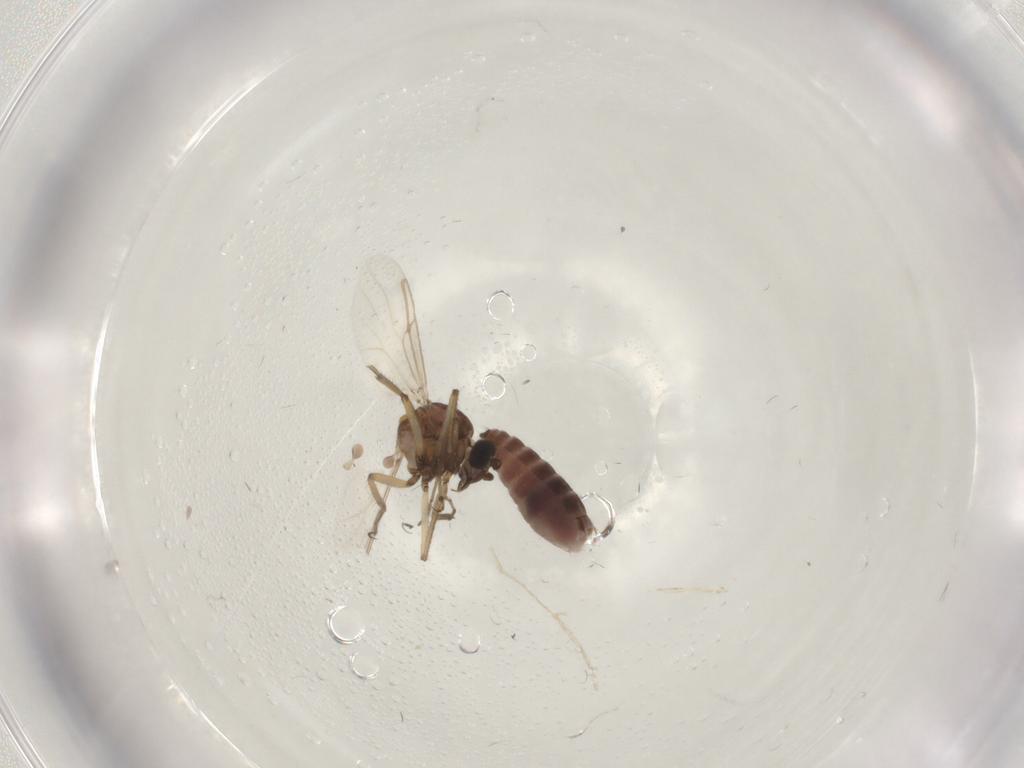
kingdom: Animalia
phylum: Arthropoda
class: Insecta
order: Diptera
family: Ceratopogonidae
